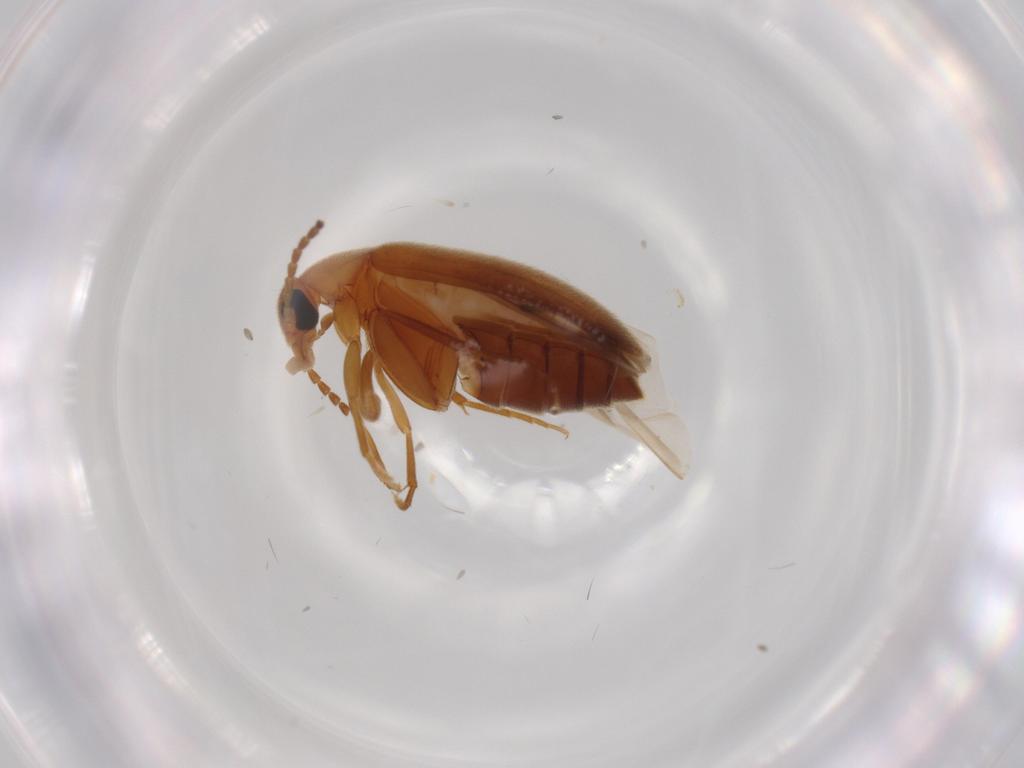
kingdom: Animalia
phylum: Arthropoda
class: Insecta
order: Coleoptera
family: Scraptiidae
